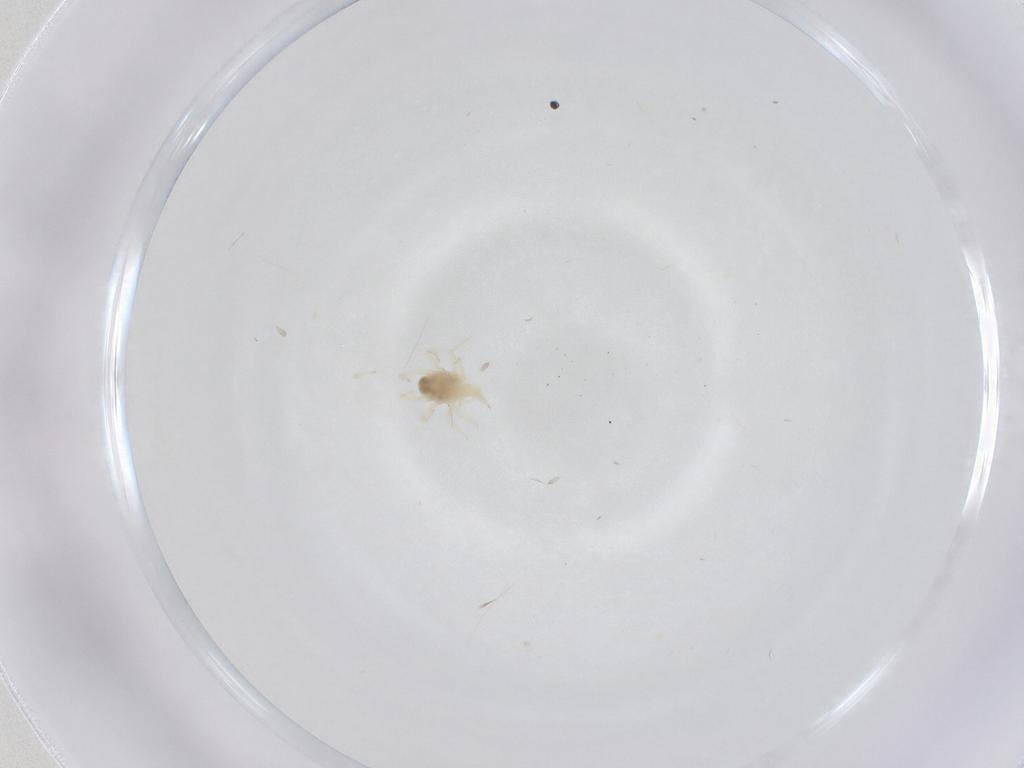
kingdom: Animalia
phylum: Arthropoda
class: Arachnida
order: Trombidiformes
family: Bdellidae
